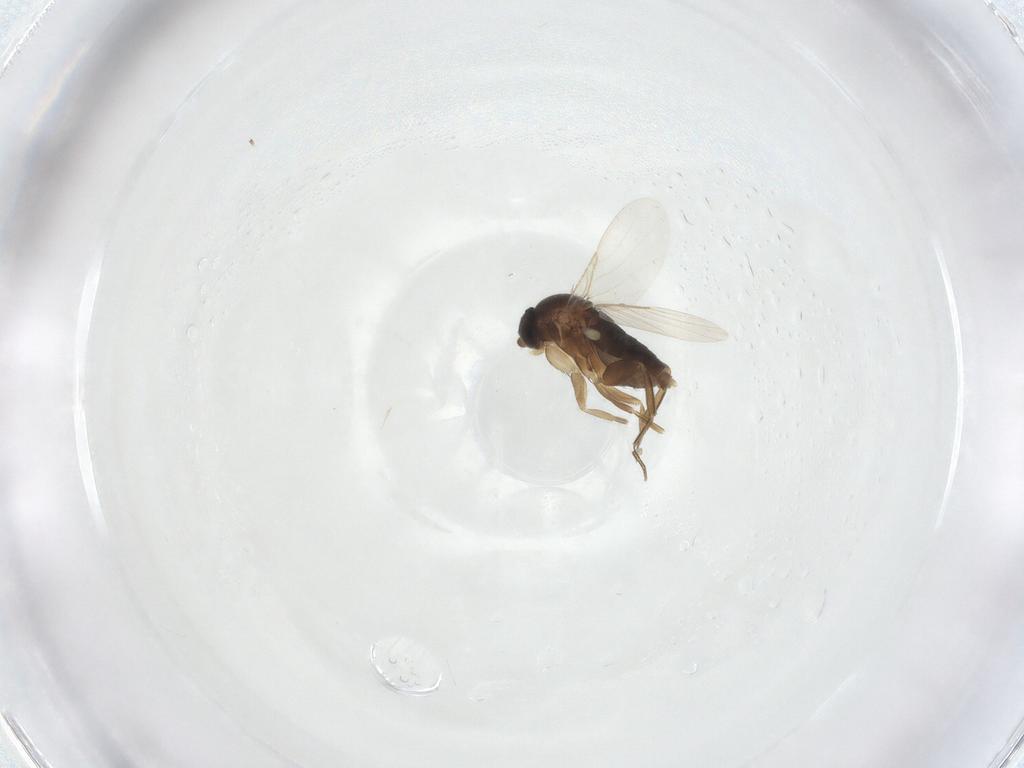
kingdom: Animalia
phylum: Arthropoda
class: Insecta
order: Diptera
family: Phoridae
